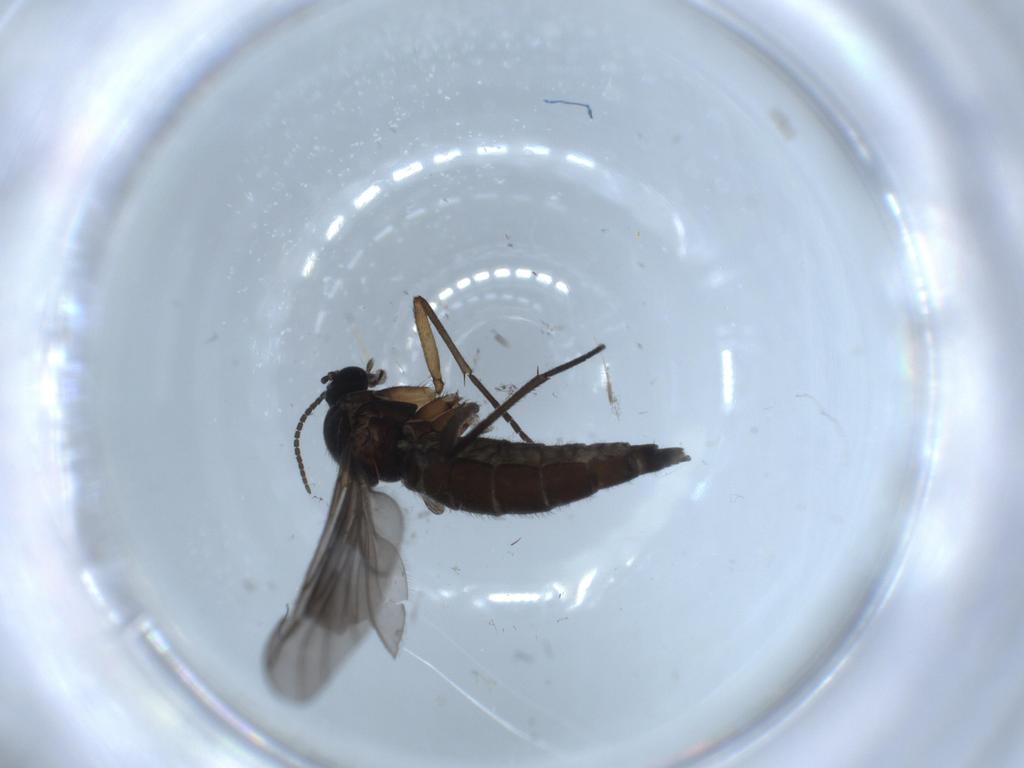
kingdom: Animalia
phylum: Arthropoda
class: Insecta
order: Diptera
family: Sciaridae
